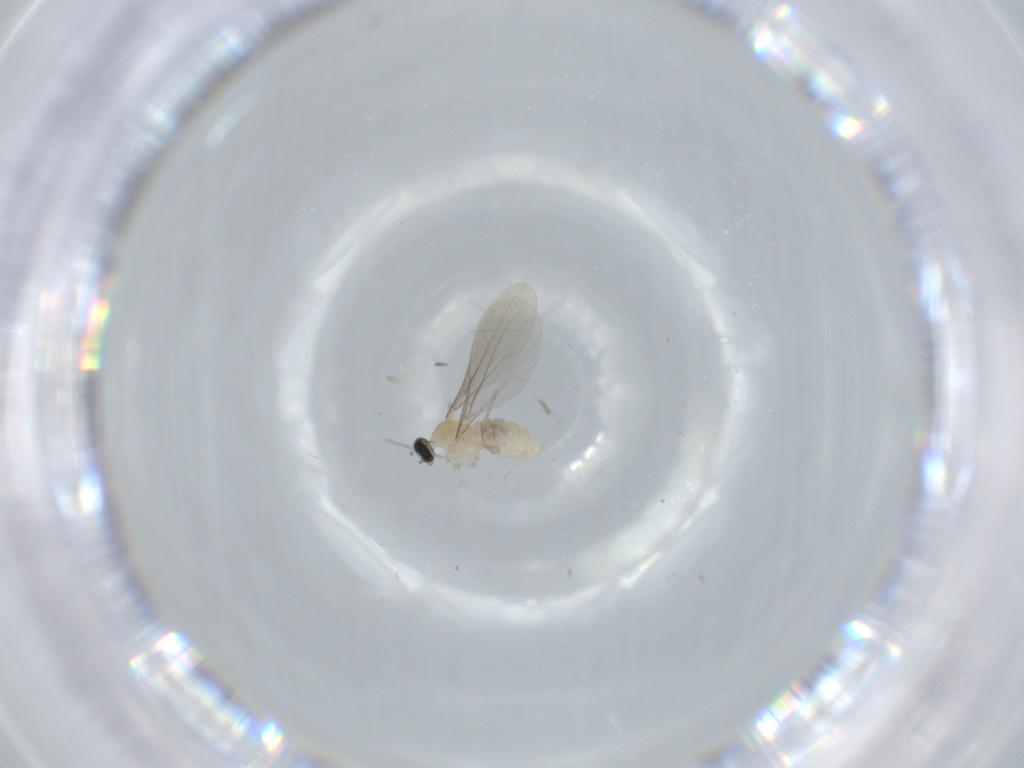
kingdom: Animalia
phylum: Arthropoda
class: Insecta
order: Diptera
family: Cecidomyiidae
